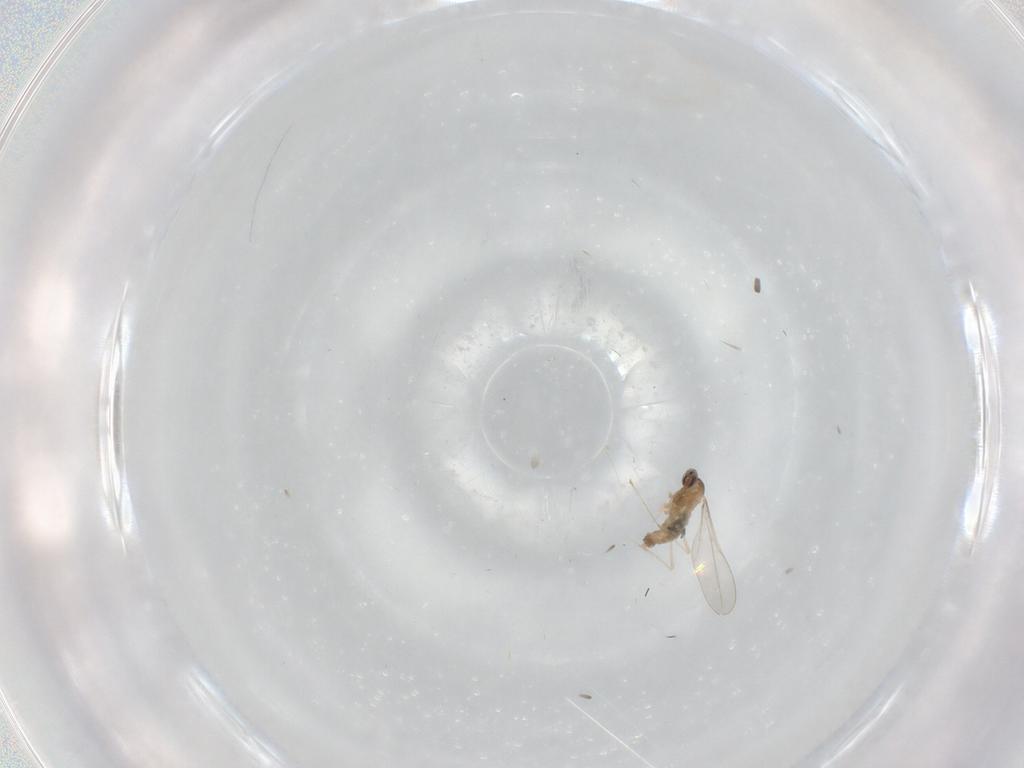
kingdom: Animalia
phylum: Arthropoda
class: Insecta
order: Diptera
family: Cecidomyiidae
